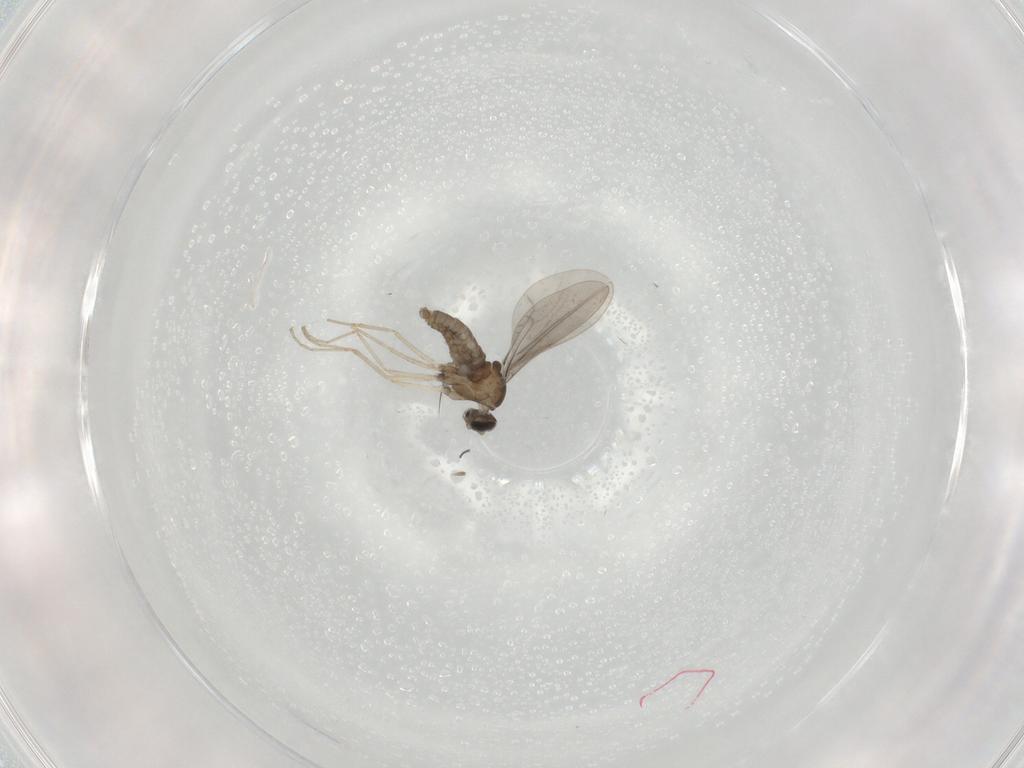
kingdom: Animalia
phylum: Arthropoda
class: Insecta
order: Diptera
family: Cecidomyiidae
